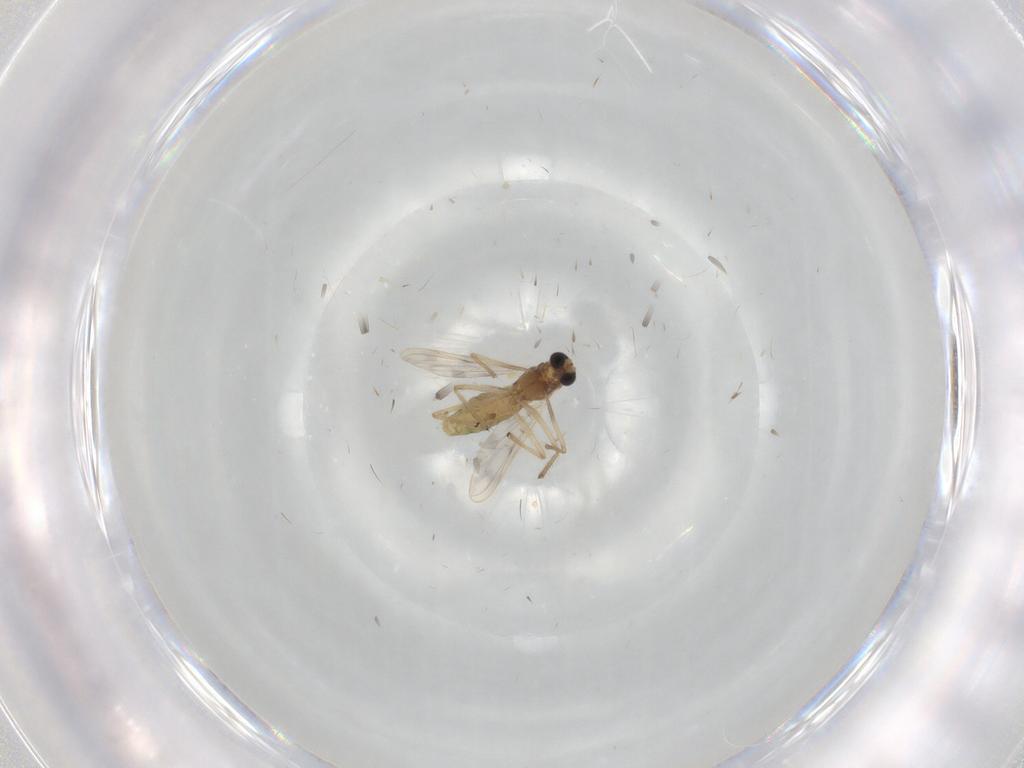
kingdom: Animalia
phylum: Arthropoda
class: Insecta
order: Diptera
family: Chironomidae
